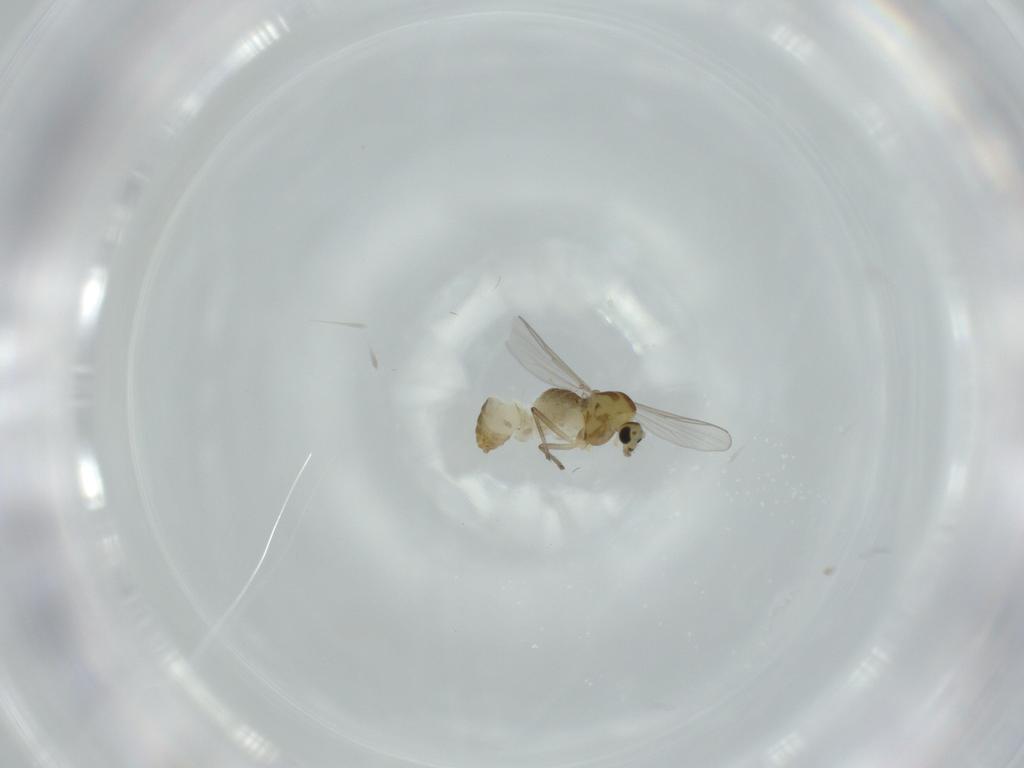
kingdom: Animalia
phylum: Arthropoda
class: Insecta
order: Diptera
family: Chironomidae
